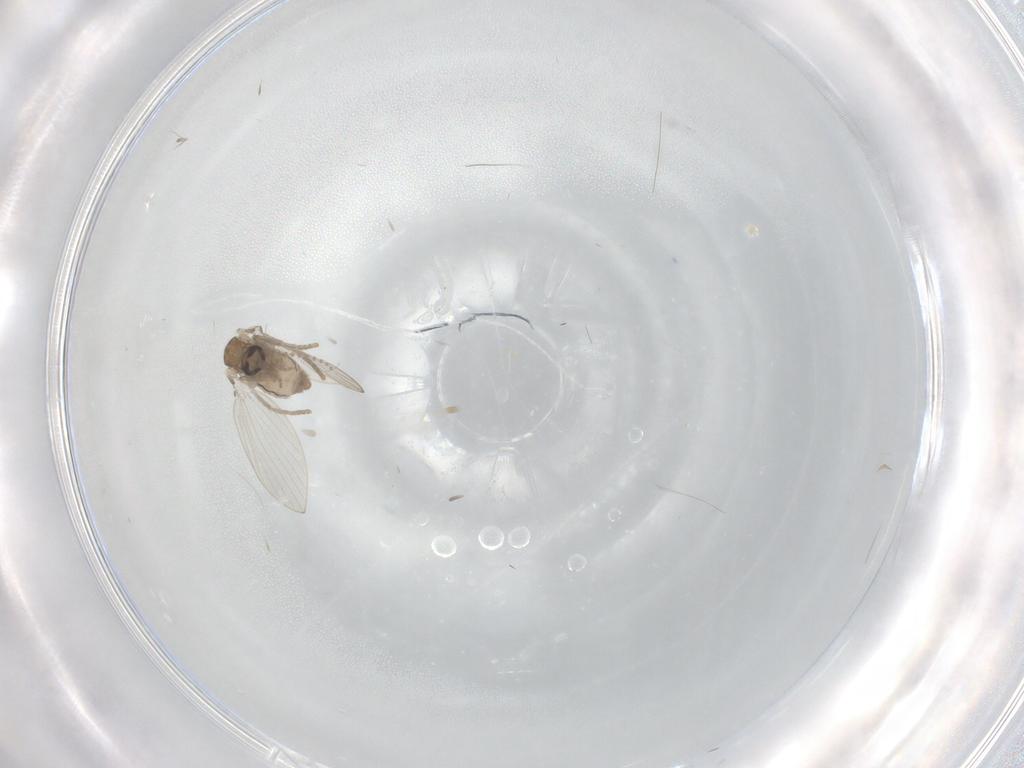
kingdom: Animalia
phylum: Arthropoda
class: Insecta
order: Diptera
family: Psychodidae
